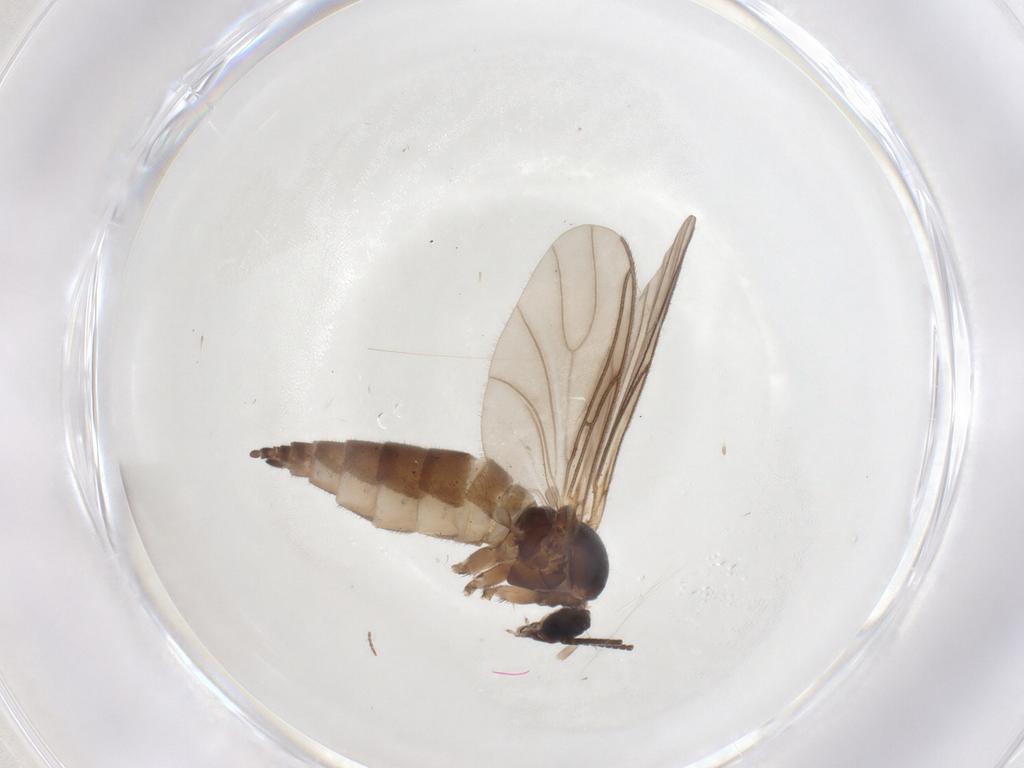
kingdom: Animalia
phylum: Arthropoda
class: Insecta
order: Diptera
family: Sciaridae
